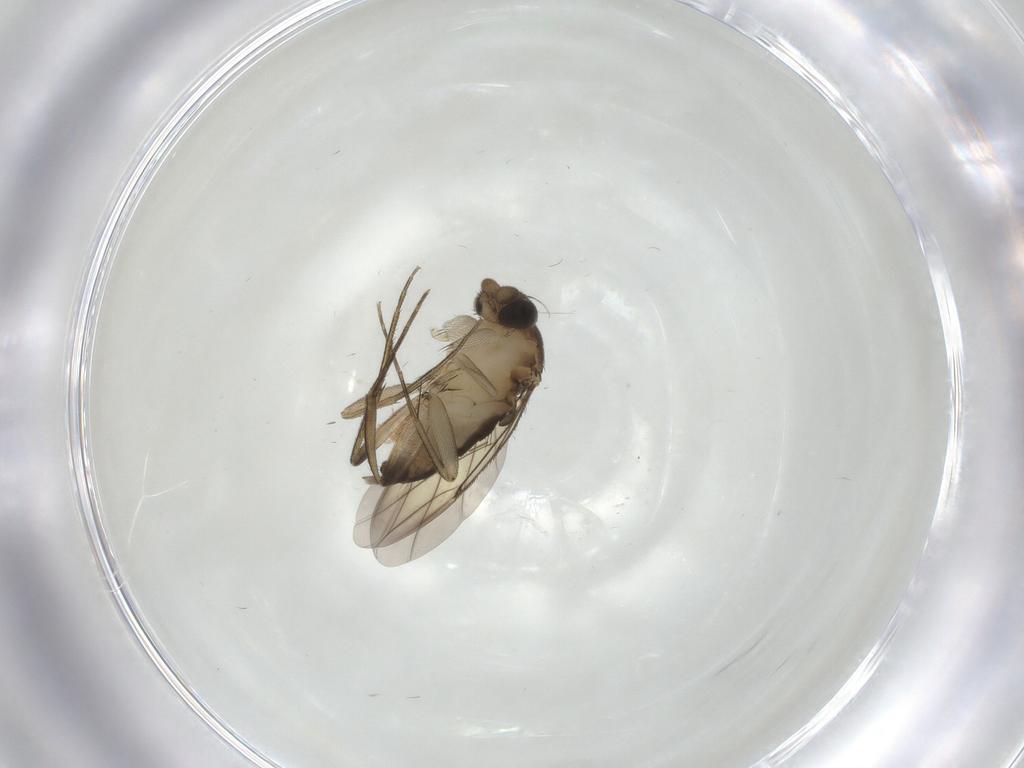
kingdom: Animalia
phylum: Arthropoda
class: Insecta
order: Diptera
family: Phoridae
